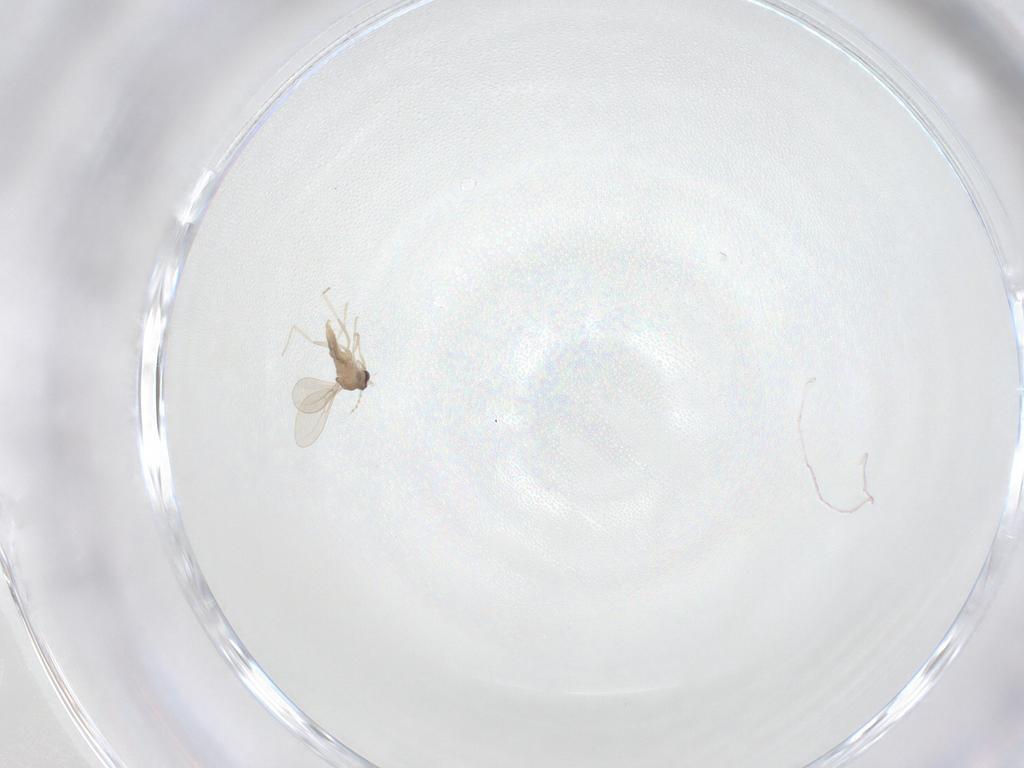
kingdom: Animalia
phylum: Arthropoda
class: Insecta
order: Diptera
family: Cecidomyiidae
